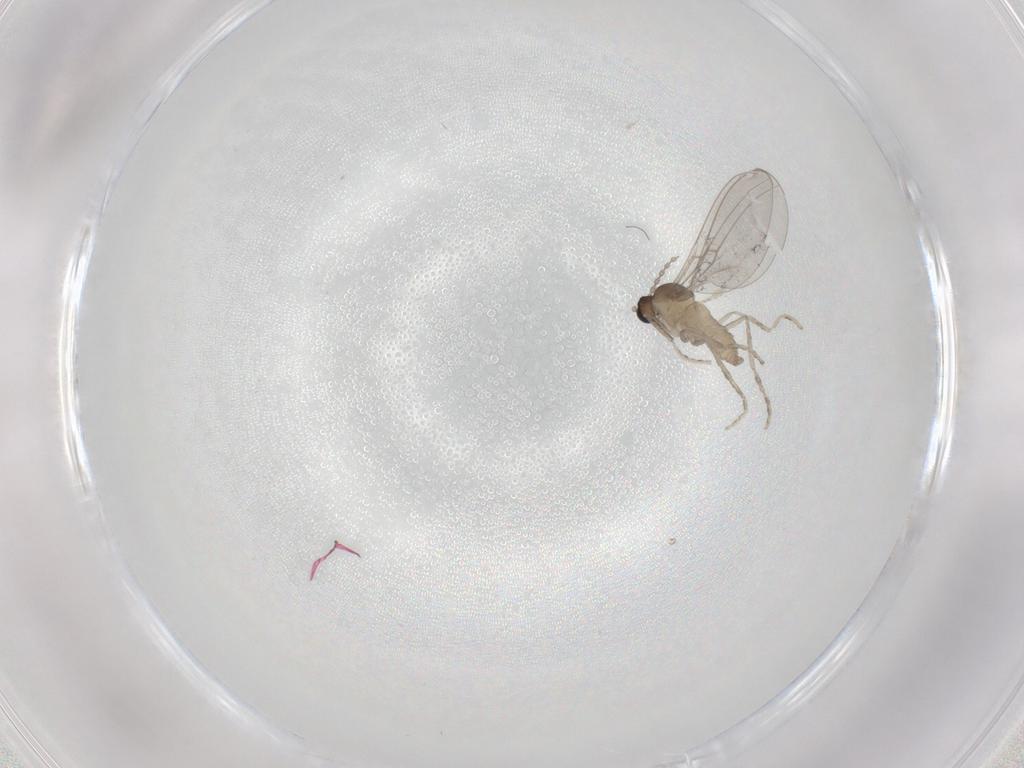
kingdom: Animalia
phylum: Arthropoda
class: Insecta
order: Diptera
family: Cecidomyiidae
